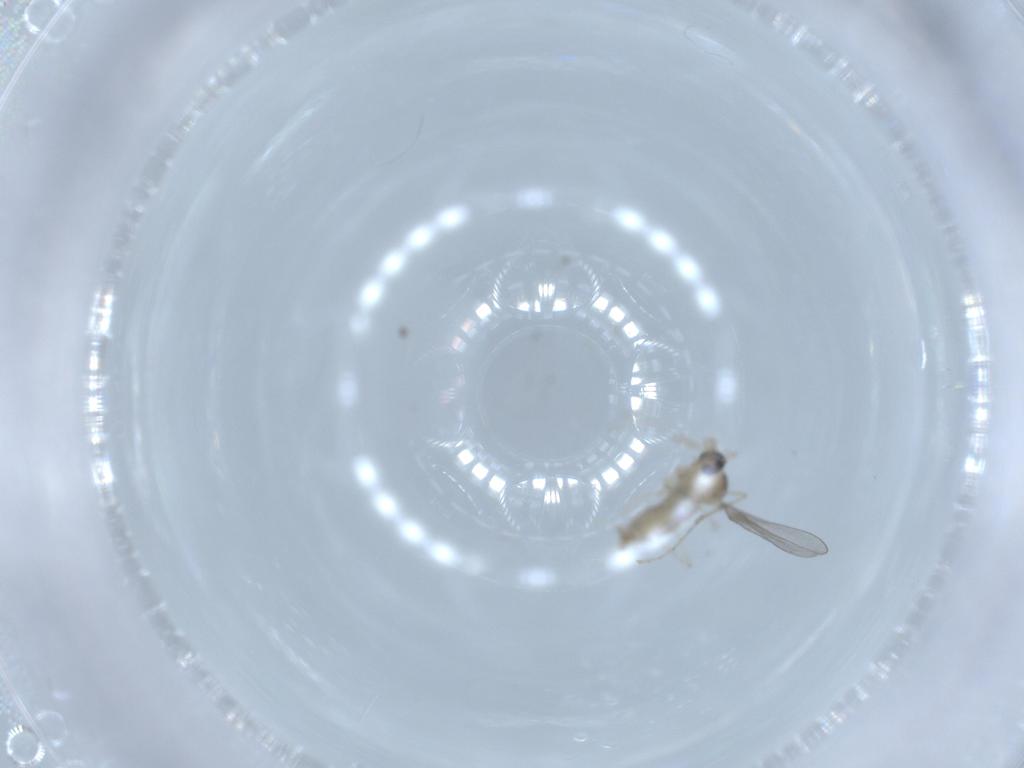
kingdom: Animalia
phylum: Arthropoda
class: Insecta
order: Diptera
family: Cecidomyiidae
